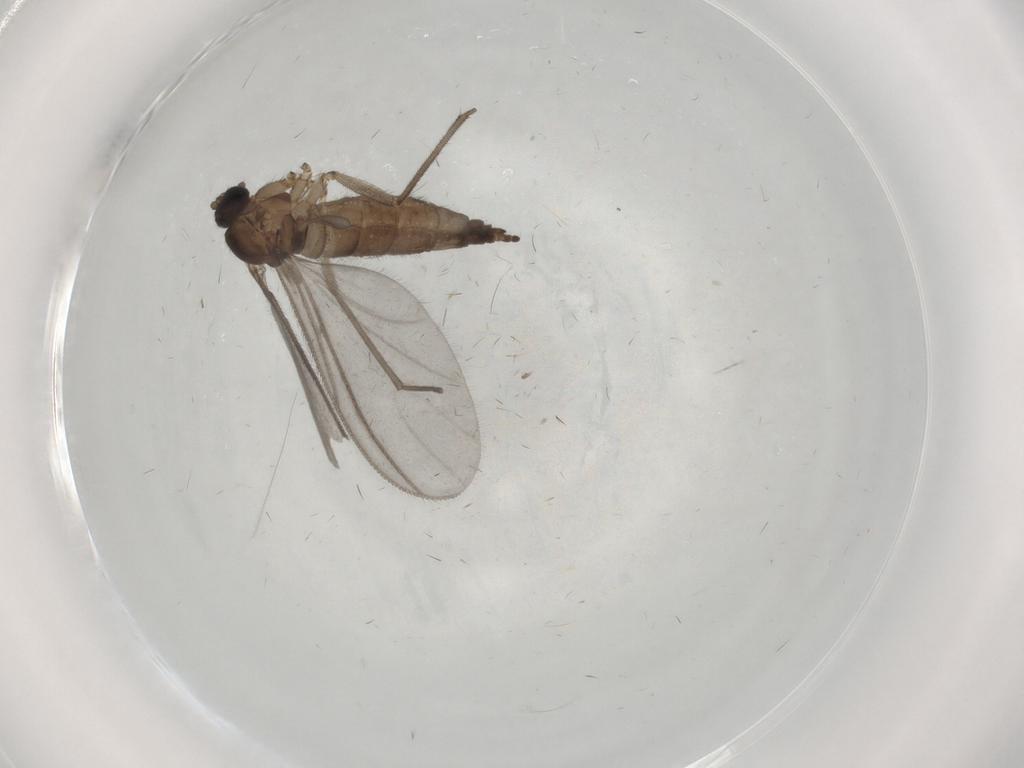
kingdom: Animalia
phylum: Arthropoda
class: Insecta
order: Diptera
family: Sciaridae
